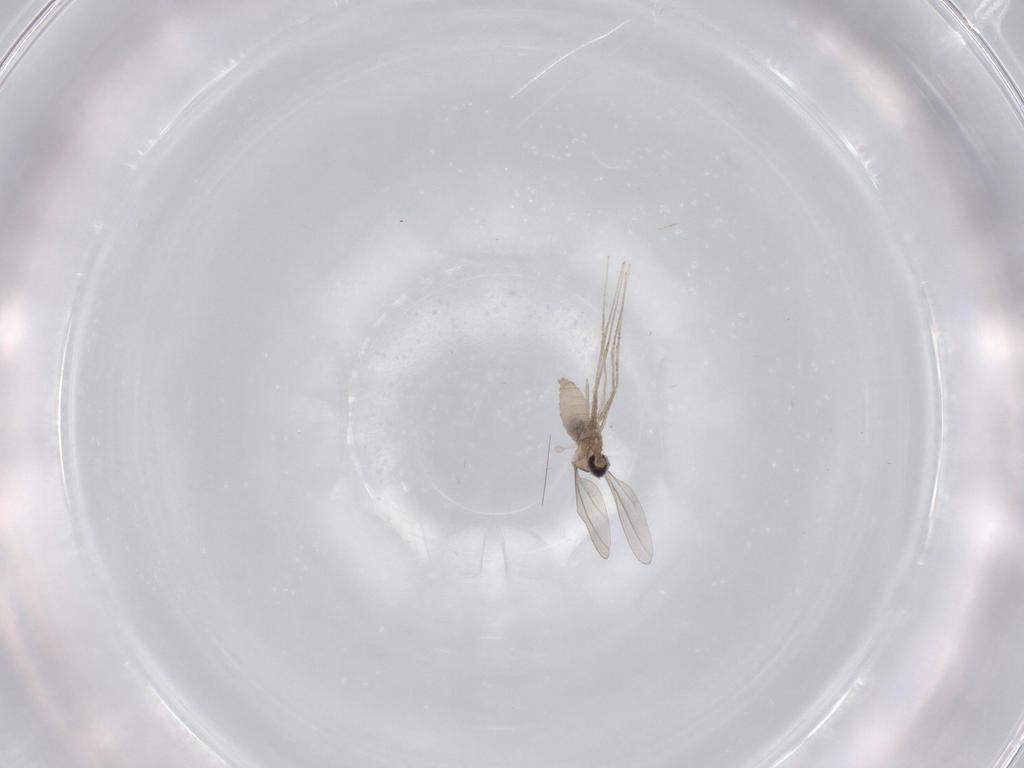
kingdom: Animalia
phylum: Arthropoda
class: Insecta
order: Diptera
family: Cecidomyiidae
